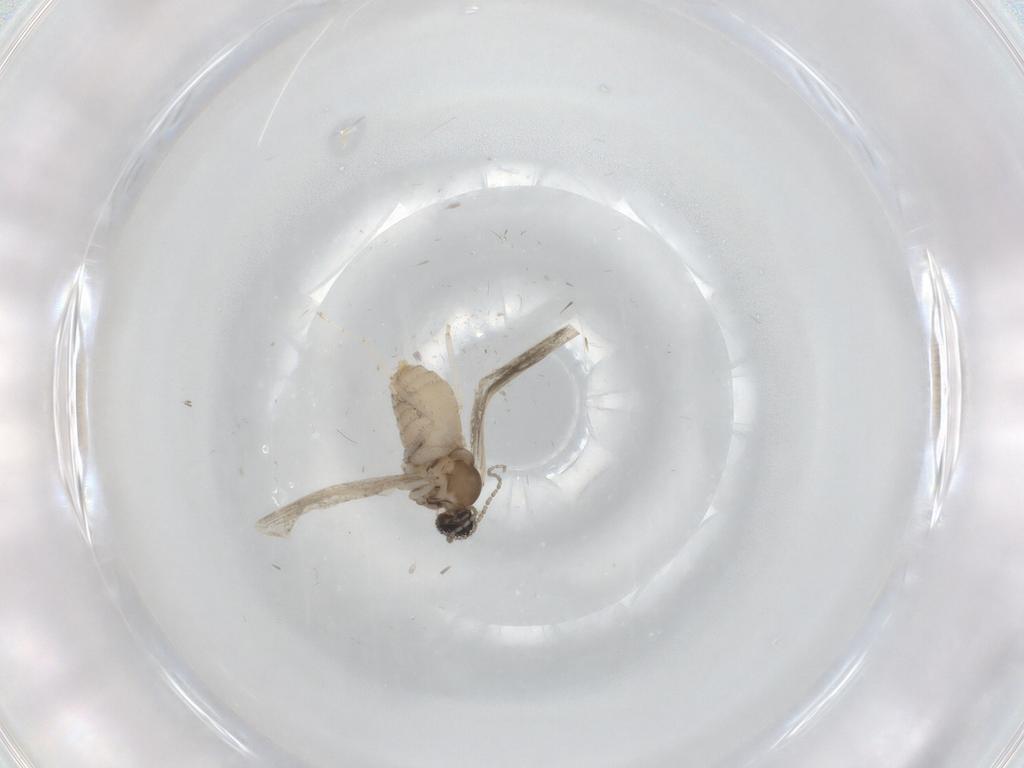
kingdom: Animalia
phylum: Arthropoda
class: Insecta
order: Diptera
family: Cecidomyiidae
